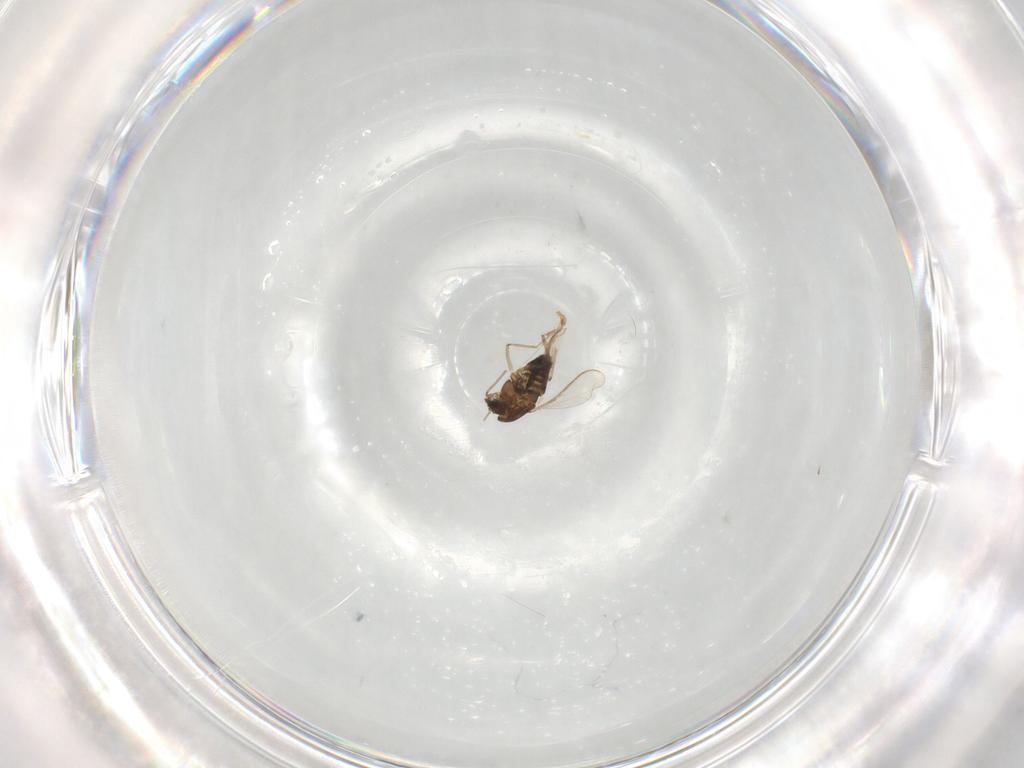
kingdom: Animalia
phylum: Arthropoda
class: Insecta
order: Diptera
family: Chironomidae
